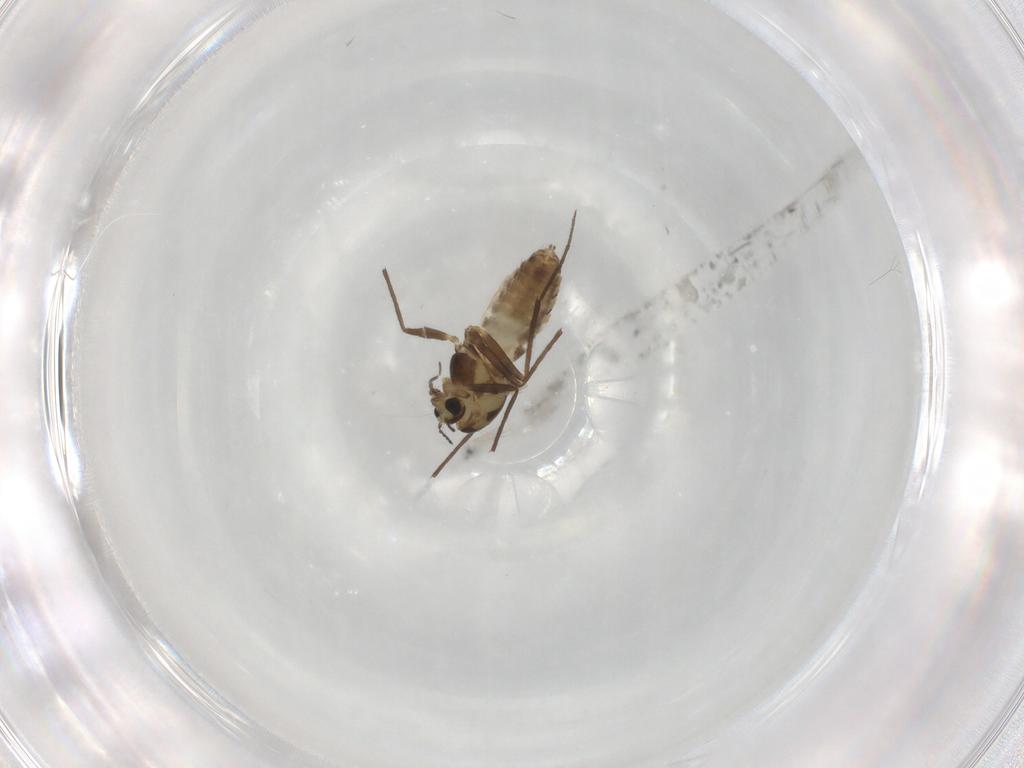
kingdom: Animalia
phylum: Arthropoda
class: Insecta
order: Diptera
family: Chironomidae
